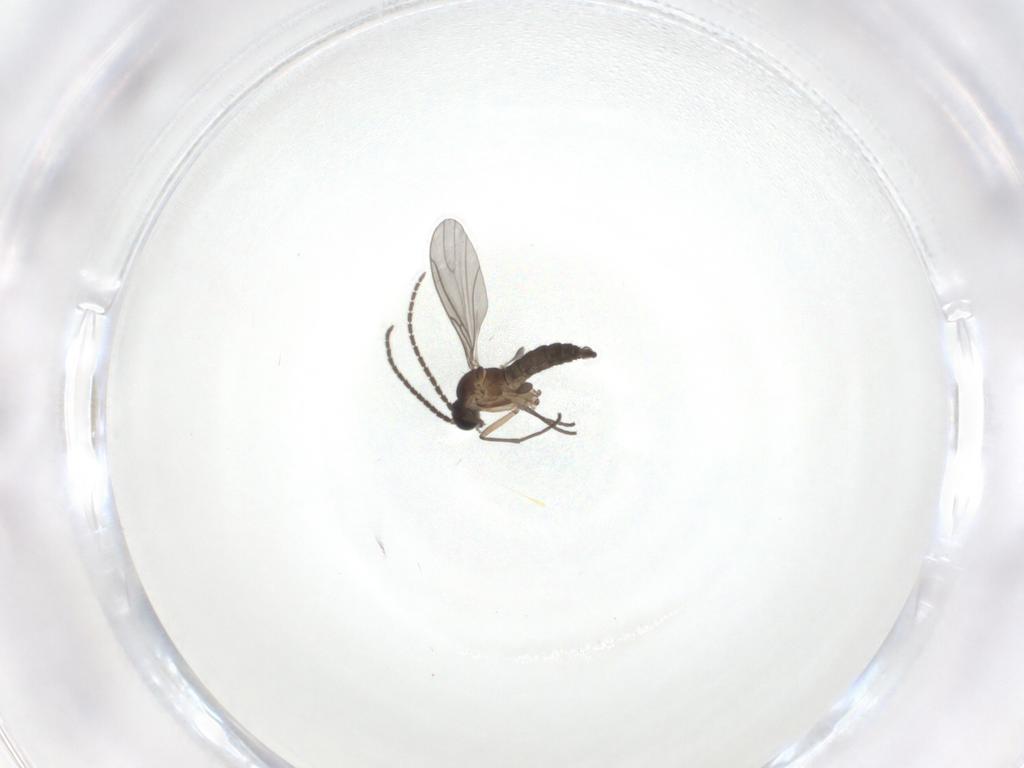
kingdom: Animalia
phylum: Arthropoda
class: Insecta
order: Diptera
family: Sciaridae
